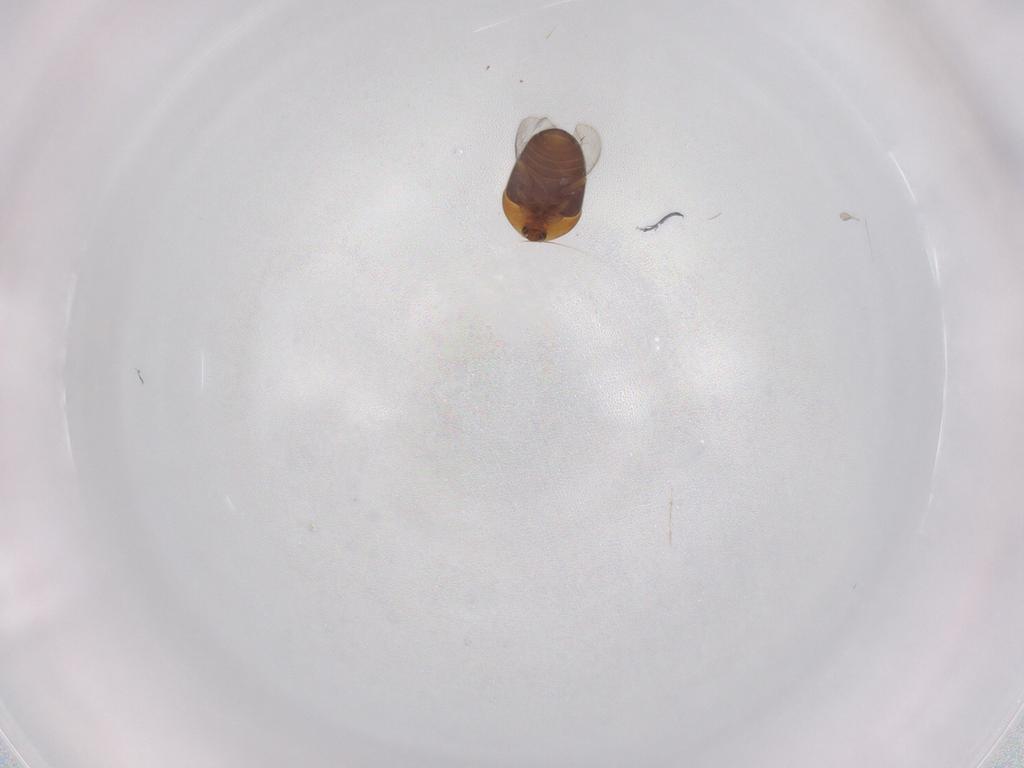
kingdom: Animalia
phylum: Arthropoda
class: Insecta
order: Coleoptera
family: Corylophidae
